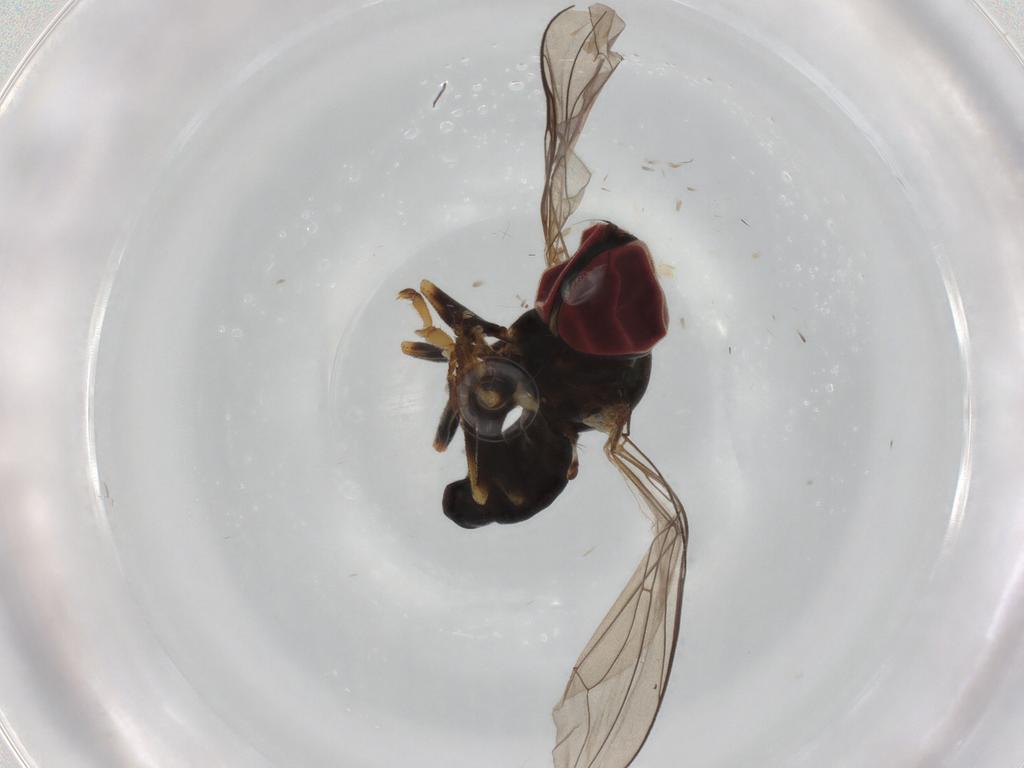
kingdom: Animalia
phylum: Arthropoda
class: Insecta
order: Diptera
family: Pipunculidae
